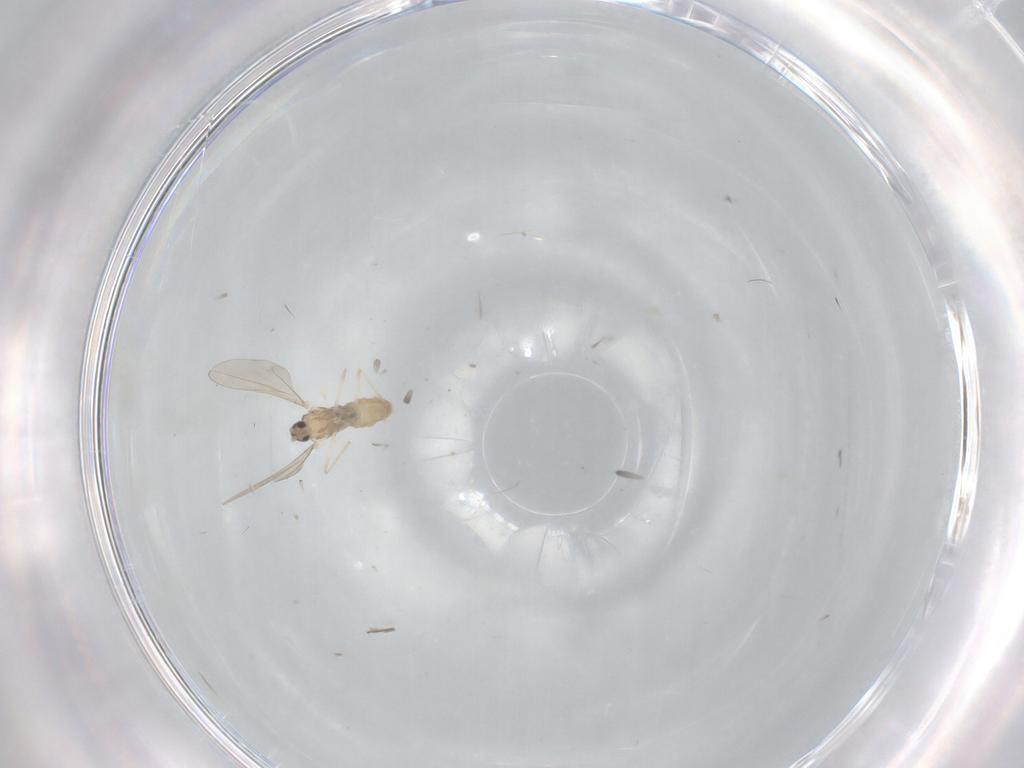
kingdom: Animalia
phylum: Arthropoda
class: Insecta
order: Diptera
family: Cecidomyiidae
